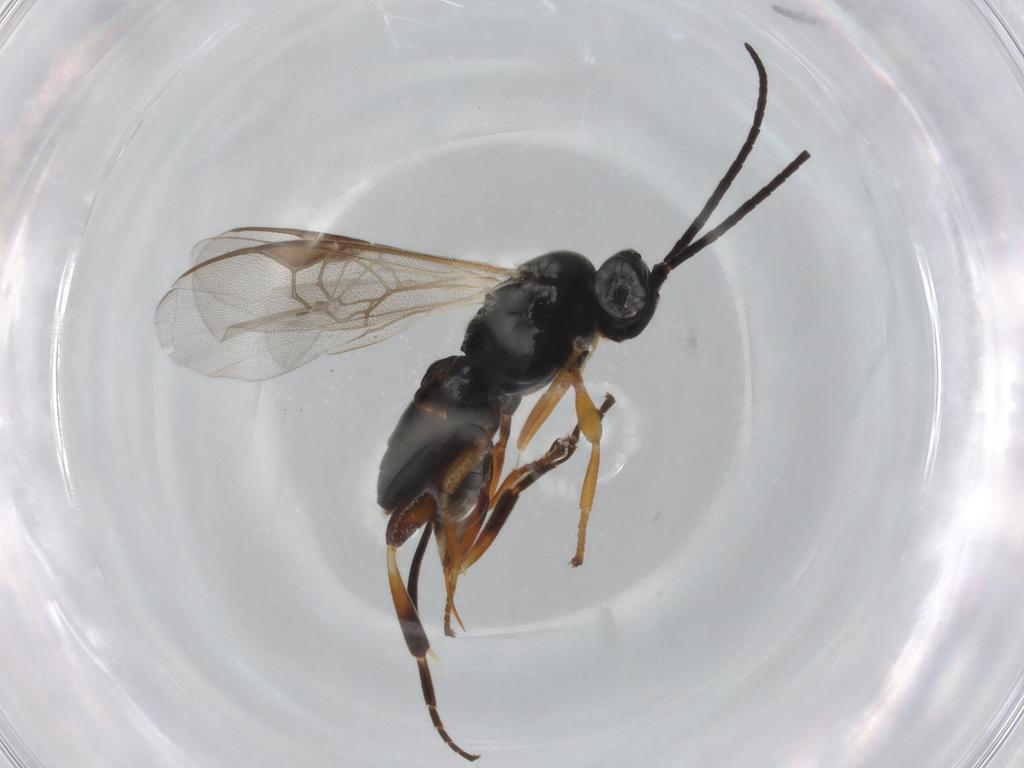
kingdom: Animalia
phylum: Arthropoda
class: Insecta
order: Hymenoptera
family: Braconidae
